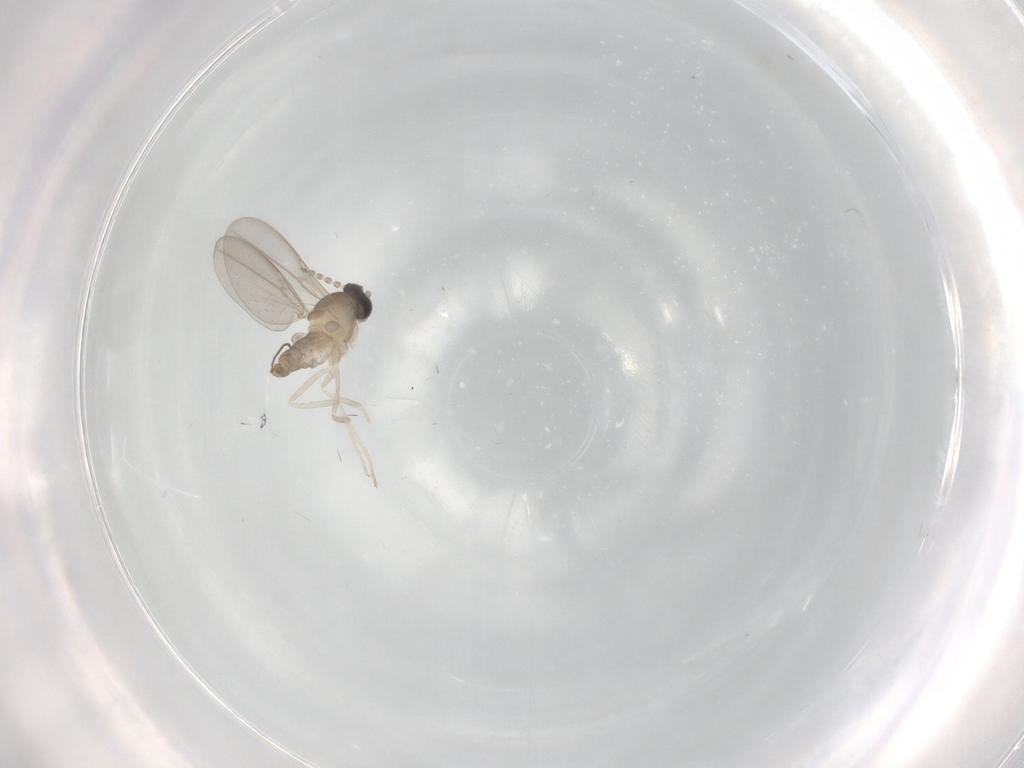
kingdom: Animalia
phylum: Arthropoda
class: Insecta
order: Diptera
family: Cecidomyiidae
